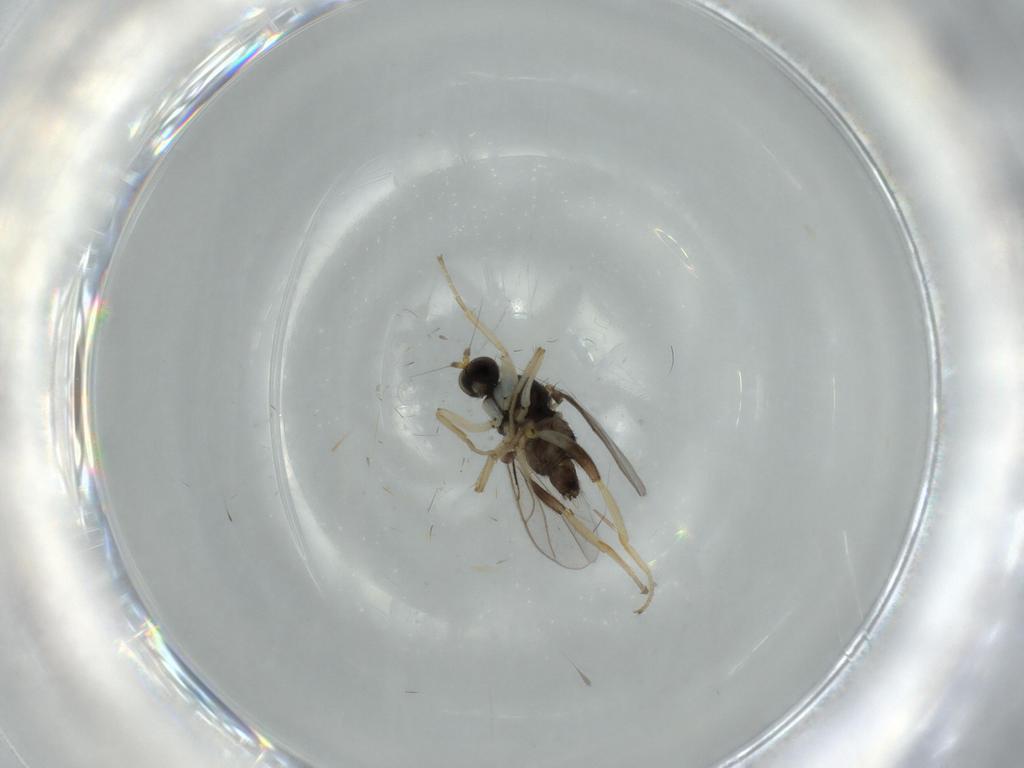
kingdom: Animalia
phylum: Arthropoda
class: Insecta
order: Diptera
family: Hybotidae
